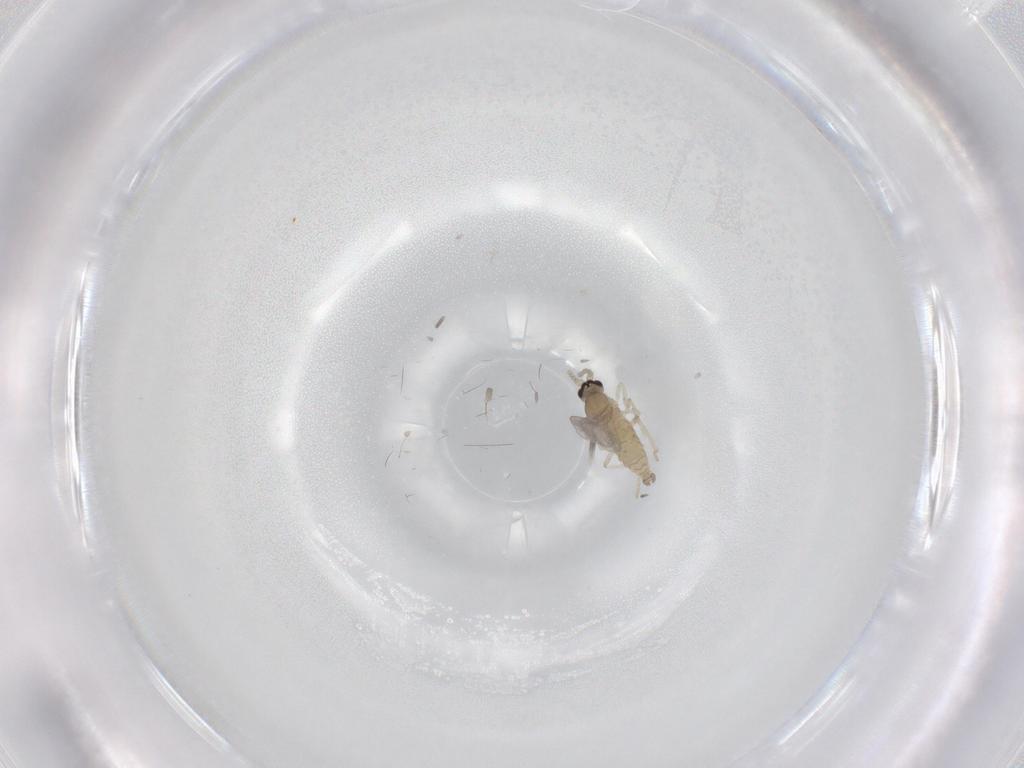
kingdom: Animalia
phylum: Arthropoda
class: Insecta
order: Diptera
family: Cecidomyiidae
